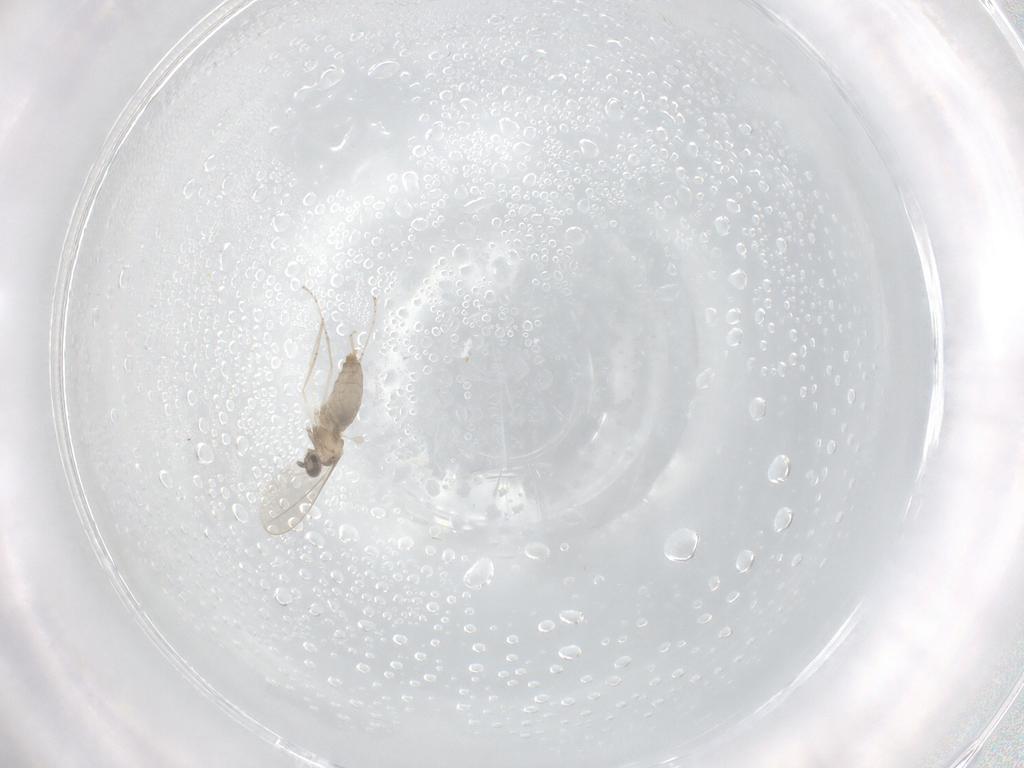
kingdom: Animalia
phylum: Arthropoda
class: Insecta
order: Diptera
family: Cecidomyiidae
